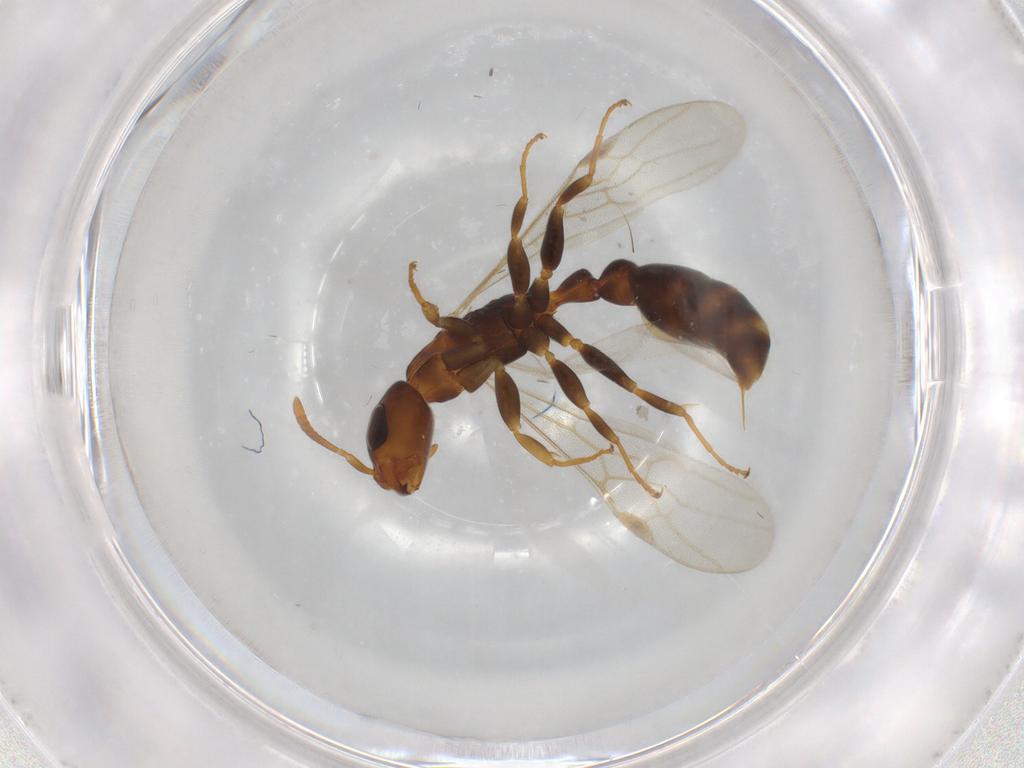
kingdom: Animalia
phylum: Arthropoda
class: Insecta
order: Hymenoptera
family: Formicidae
